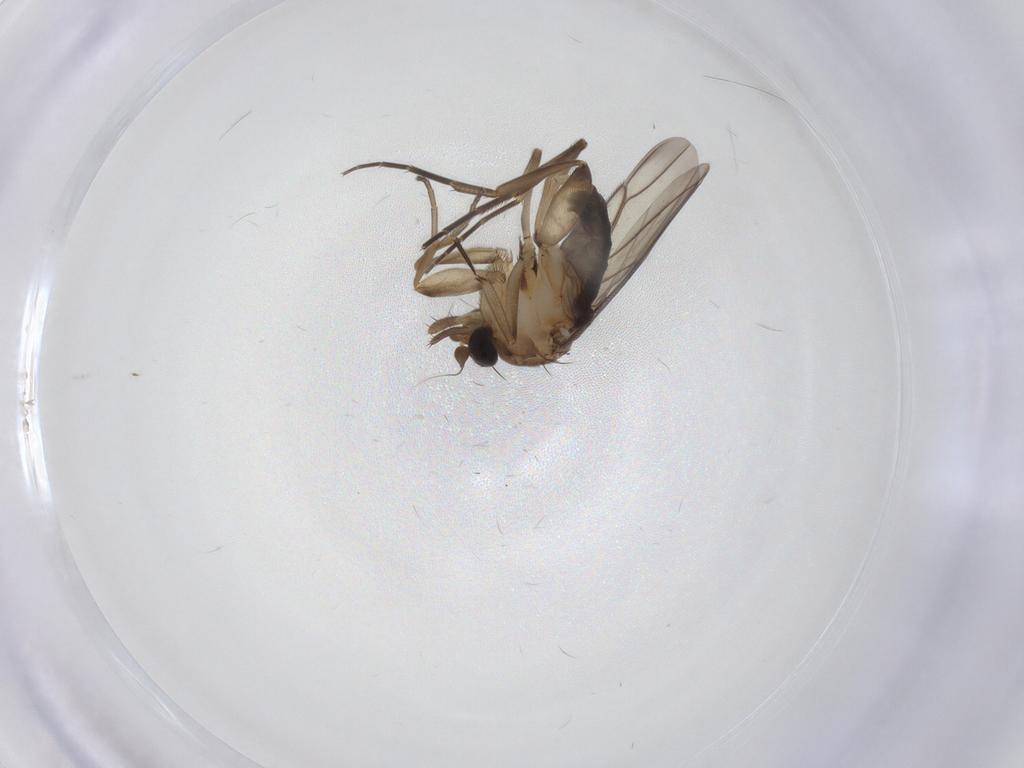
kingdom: Animalia
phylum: Arthropoda
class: Insecta
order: Diptera
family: Phoridae
